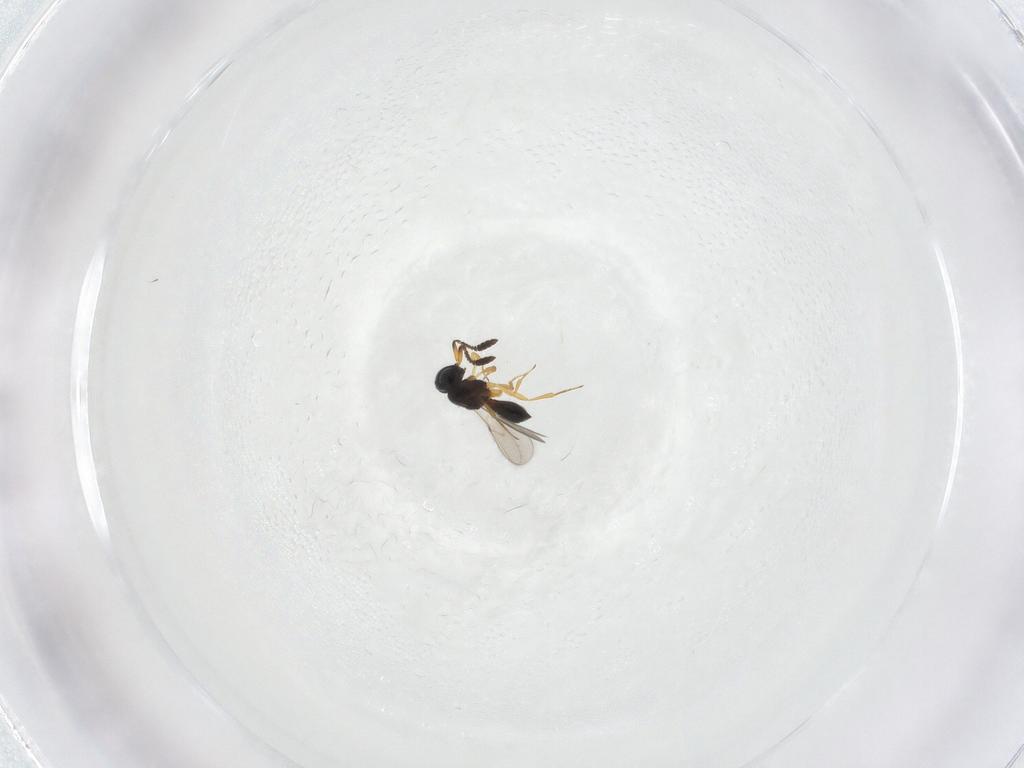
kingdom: Animalia
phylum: Arthropoda
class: Insecta
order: Hymenoptera
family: Scelionidae
